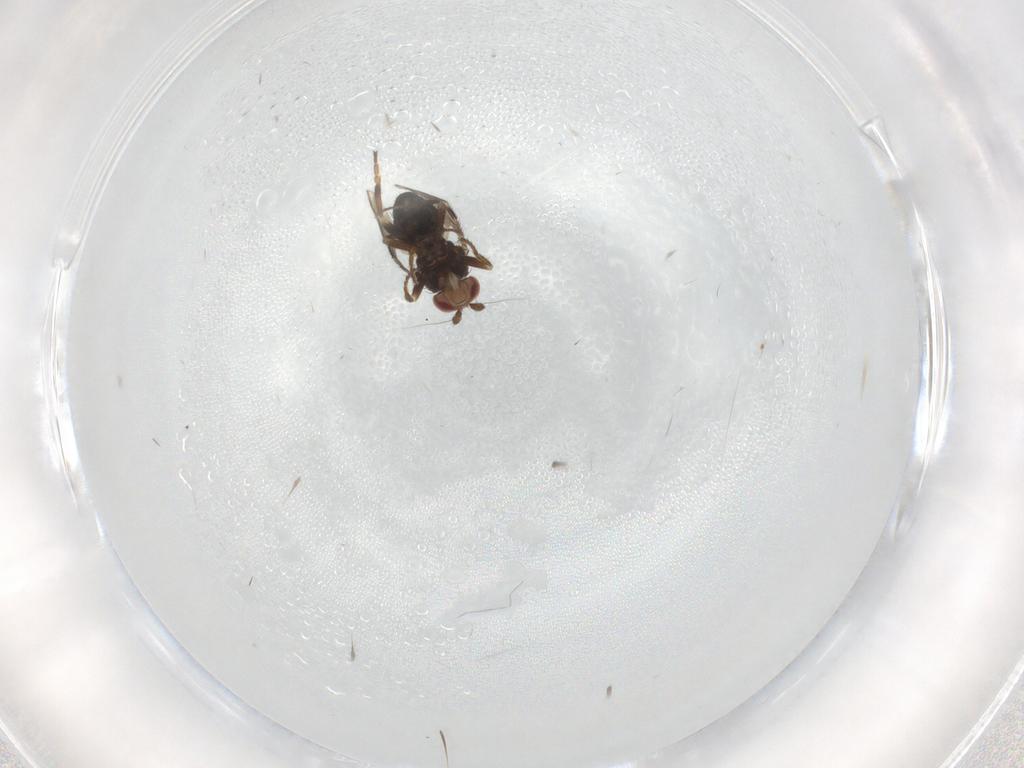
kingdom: Animalia
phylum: Arthropoda
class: Insecta
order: Diptera
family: Sphaeroceridae
